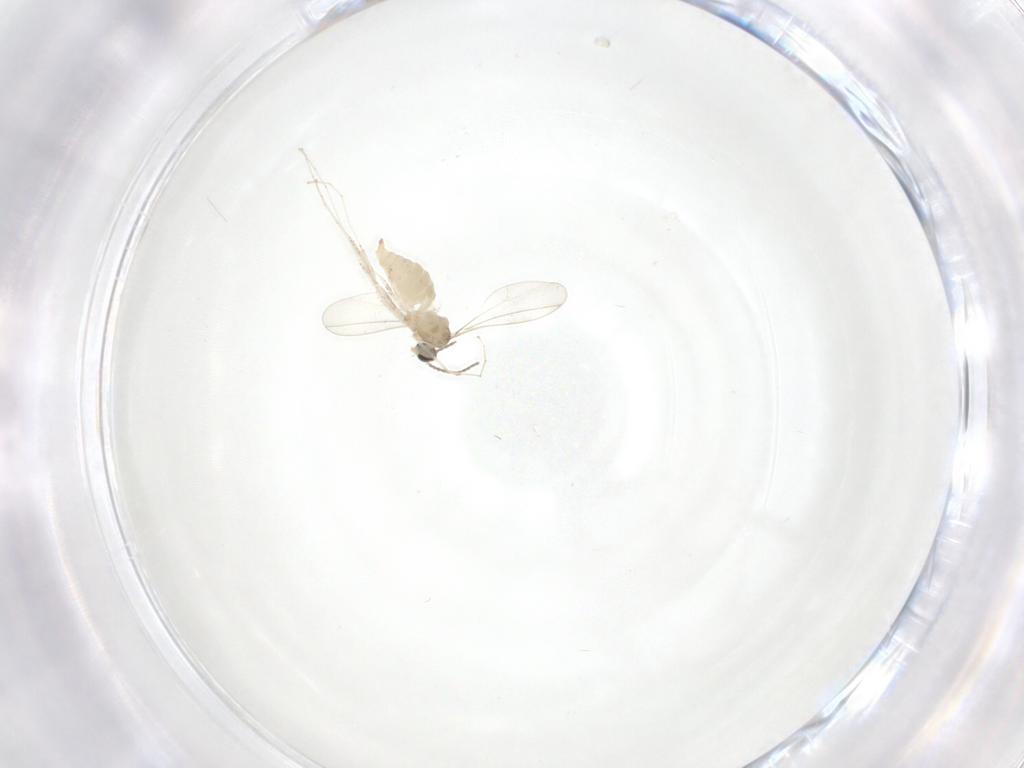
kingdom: Animalia
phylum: Arthropoda
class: Insecta
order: Diptera
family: Cecidomyiidae
